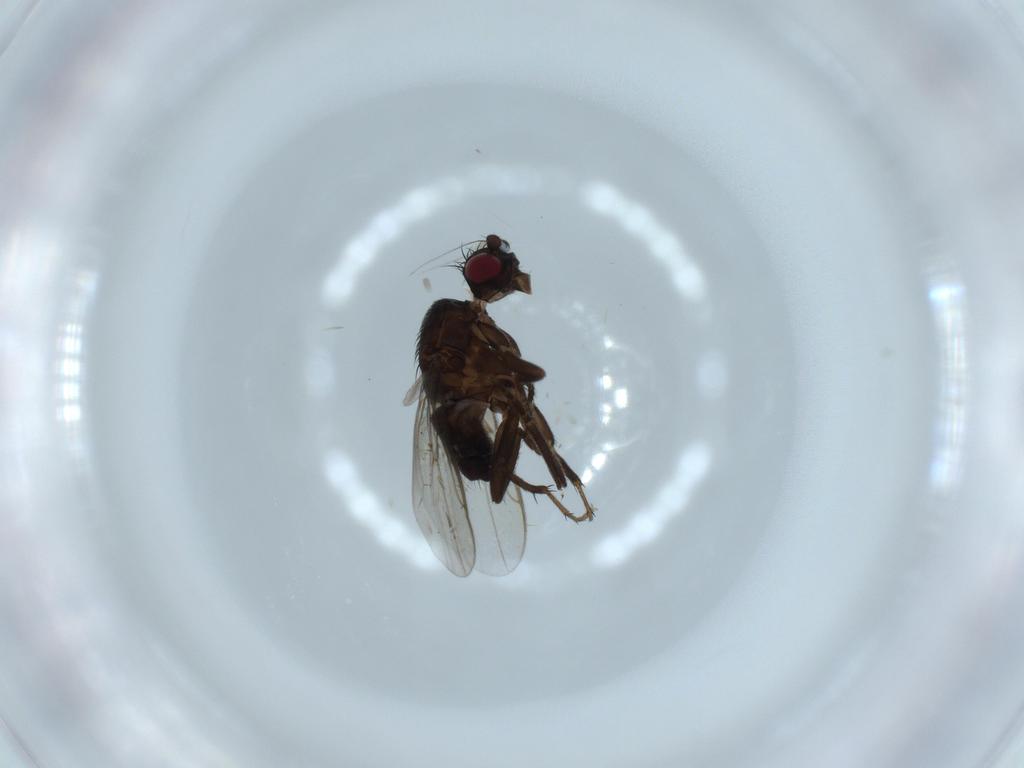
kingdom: Animalia
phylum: Arthropoda
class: Insecta
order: Diptera
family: Sphaeroceridae
